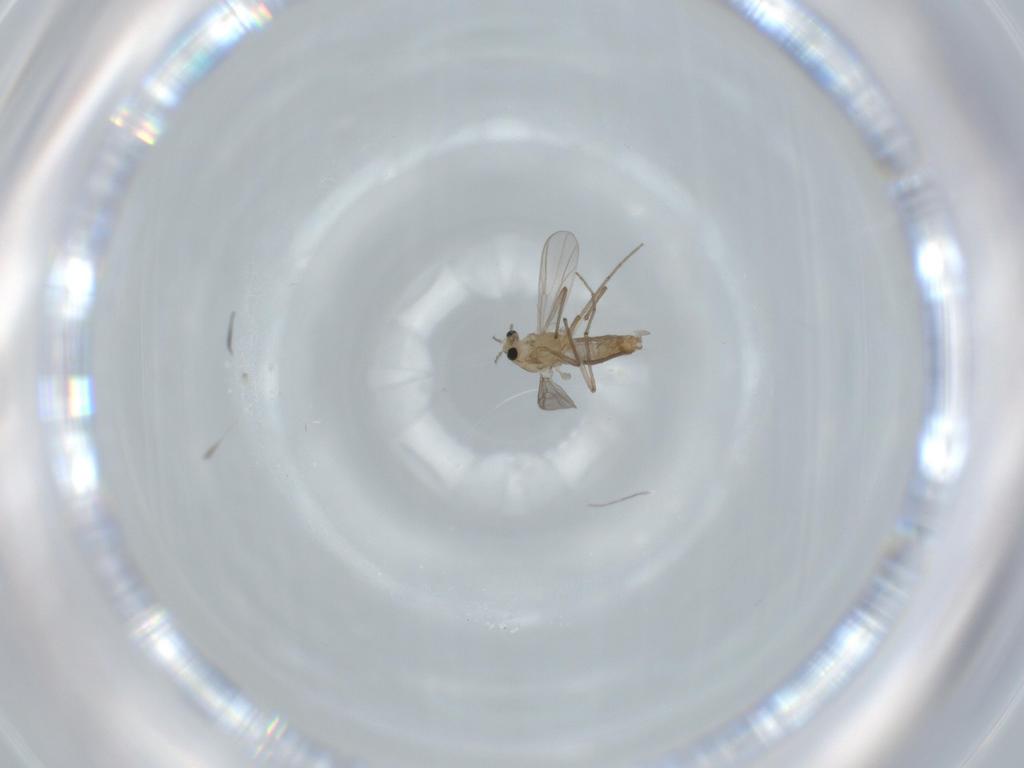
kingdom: Animalia
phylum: Arthropoda
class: Insecta
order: Diptera
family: Chironomidae
